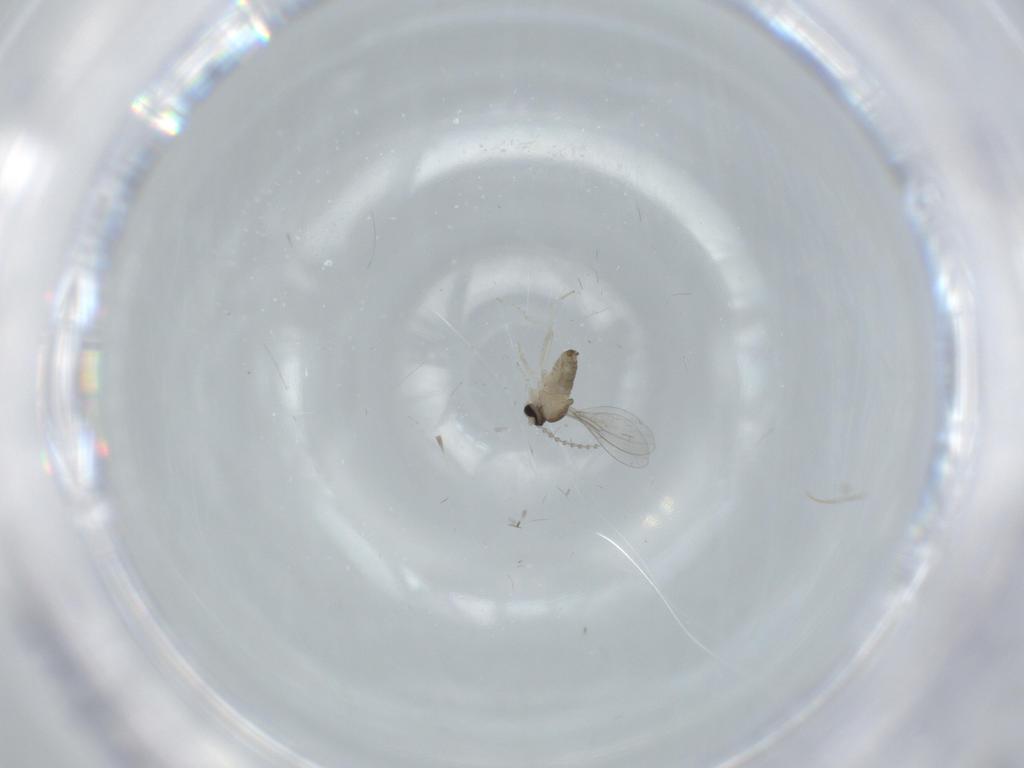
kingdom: Animalia
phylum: Arthropoda
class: Insecta
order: Diptera
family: Cecidomyiidae
